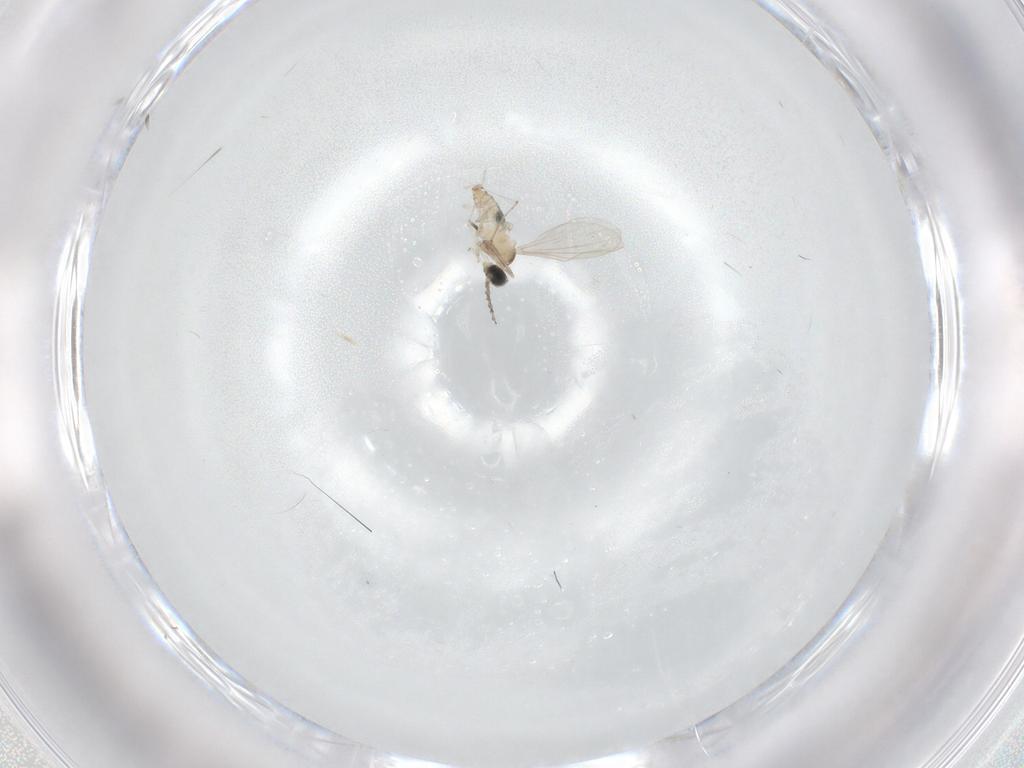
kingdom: Animalia
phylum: Arthropoda
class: Insecta
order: Diptera
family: Cecidomyiidae
